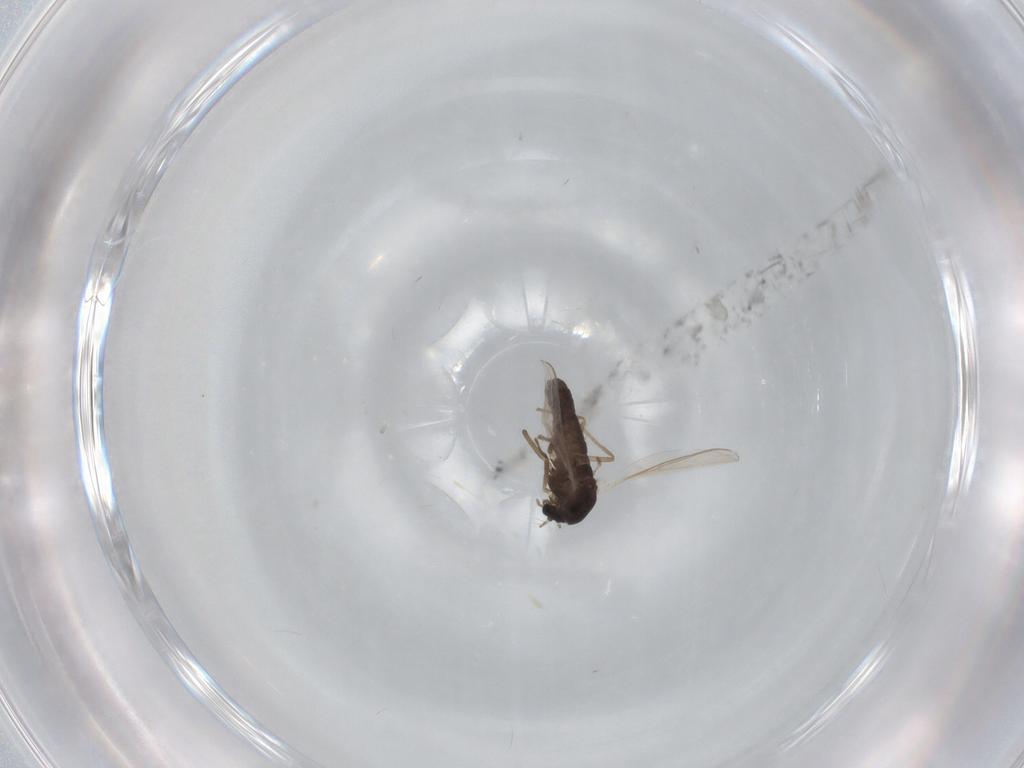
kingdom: Animalia
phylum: Arthropoda
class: Insecta
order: Diptera
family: Chironomidae
